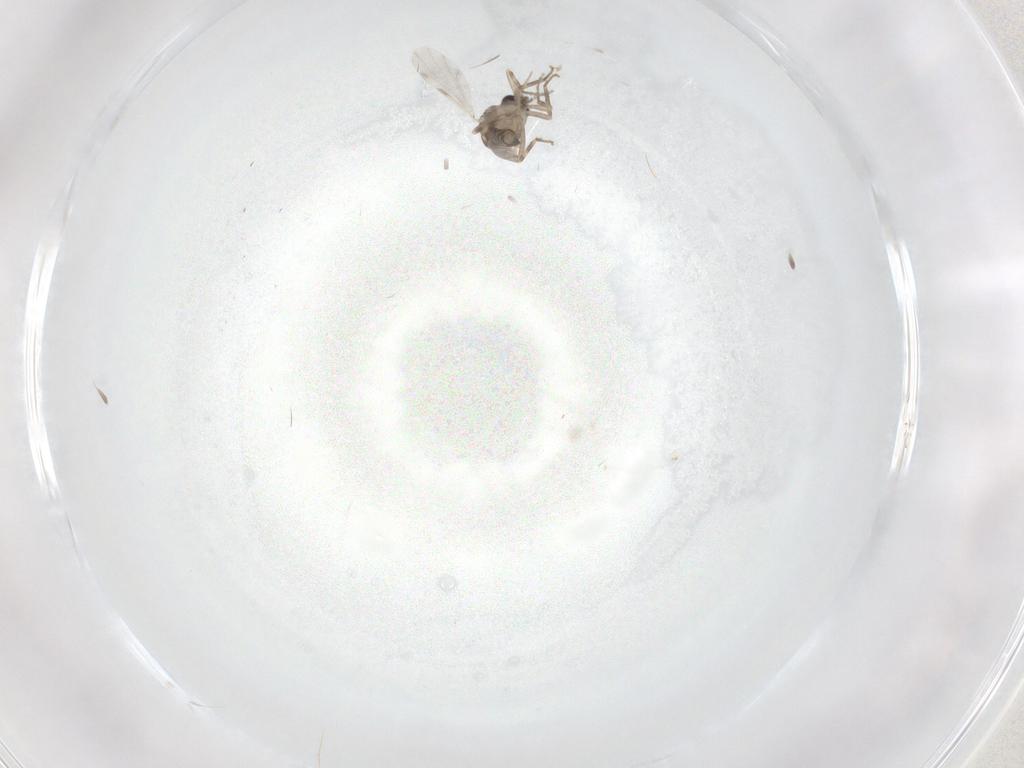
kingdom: Animalia
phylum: Arthropoda
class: Insecta
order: Diptera
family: Ceratopogonidae
